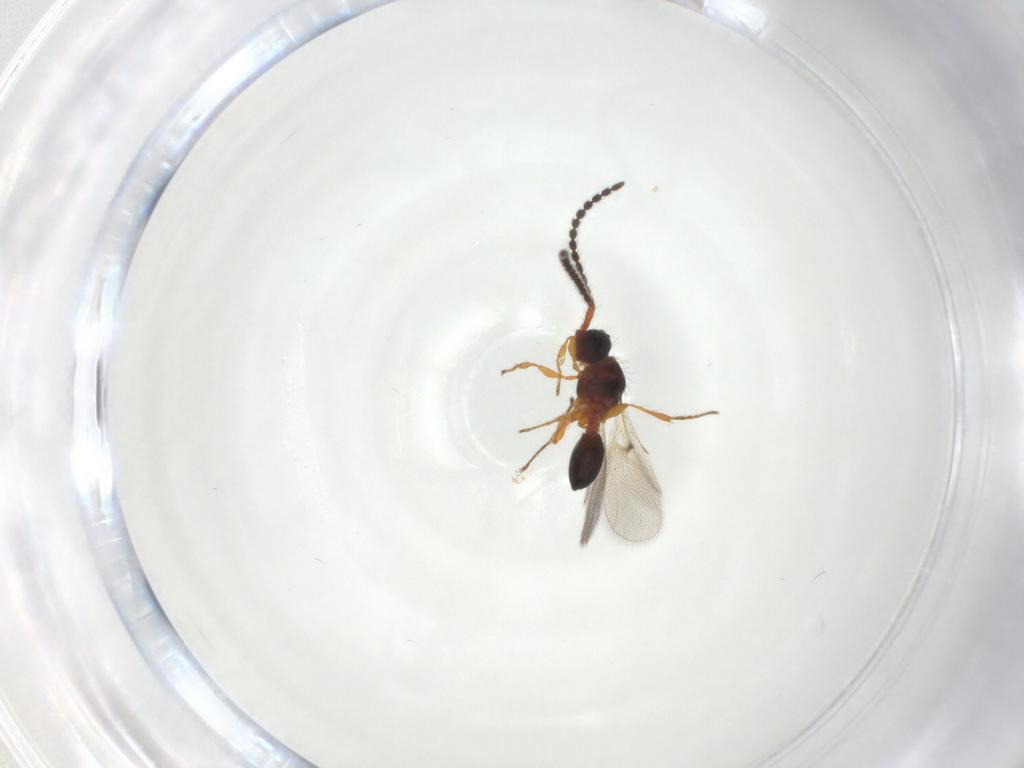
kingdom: Animalia
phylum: Arthropoda
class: Insecta
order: Hymenoptera
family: Diapriidae
